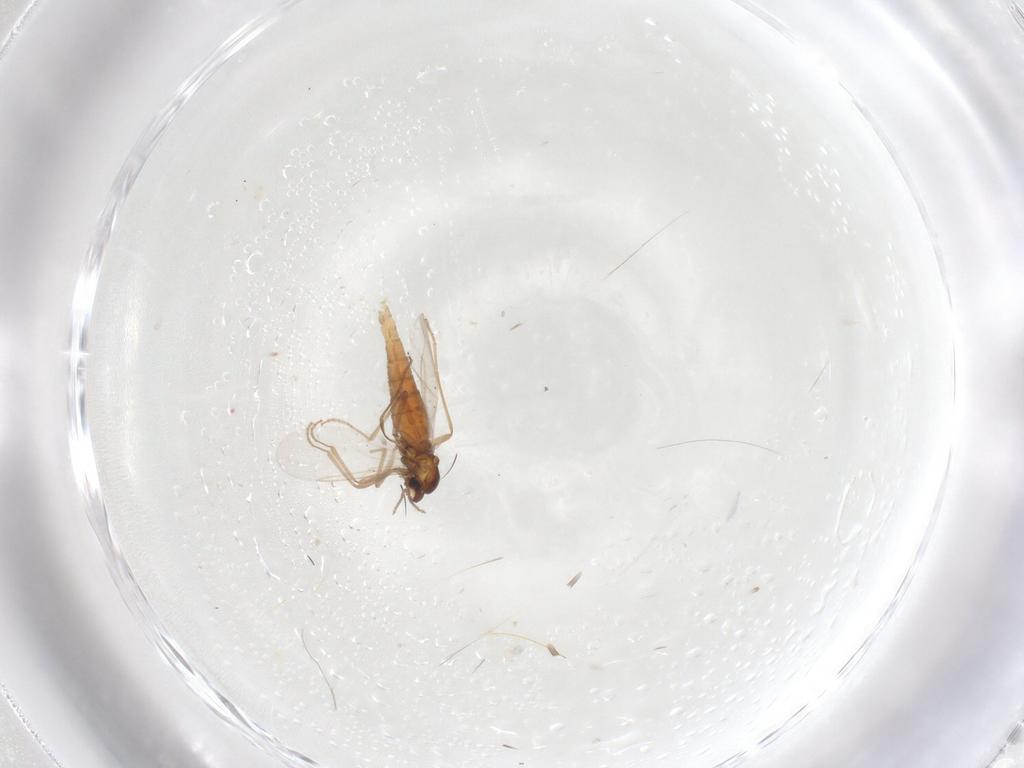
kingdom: Animalia
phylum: Arthropoda
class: Insecta
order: Diptera
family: Cecidomyiidae
